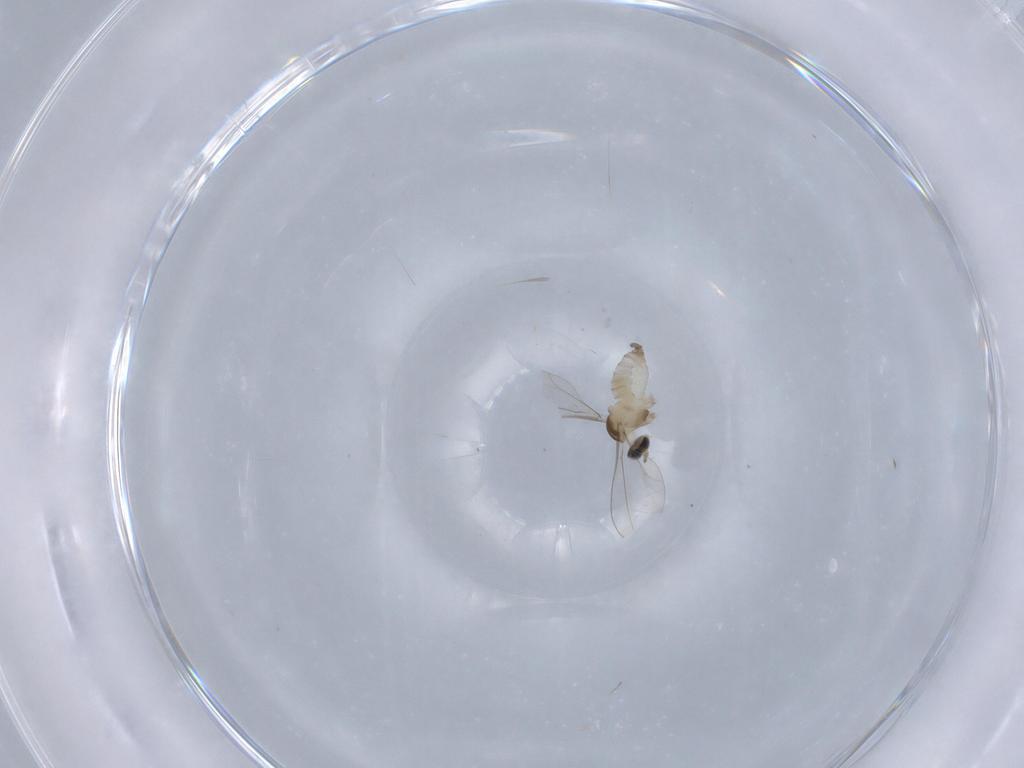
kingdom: Animalia
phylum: Arthropoda
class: Insecta
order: Diptera
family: Cecidomyiidae
